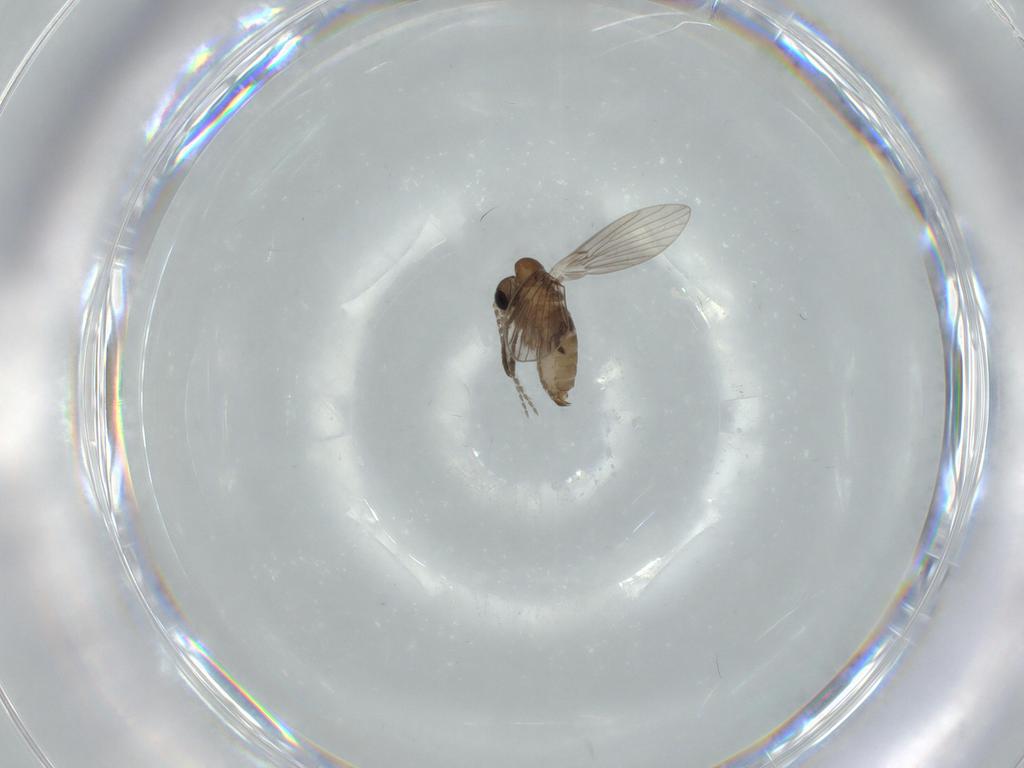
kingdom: Animalia
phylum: Arthropoda
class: Insecta
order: Diptera
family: Psychodidae
